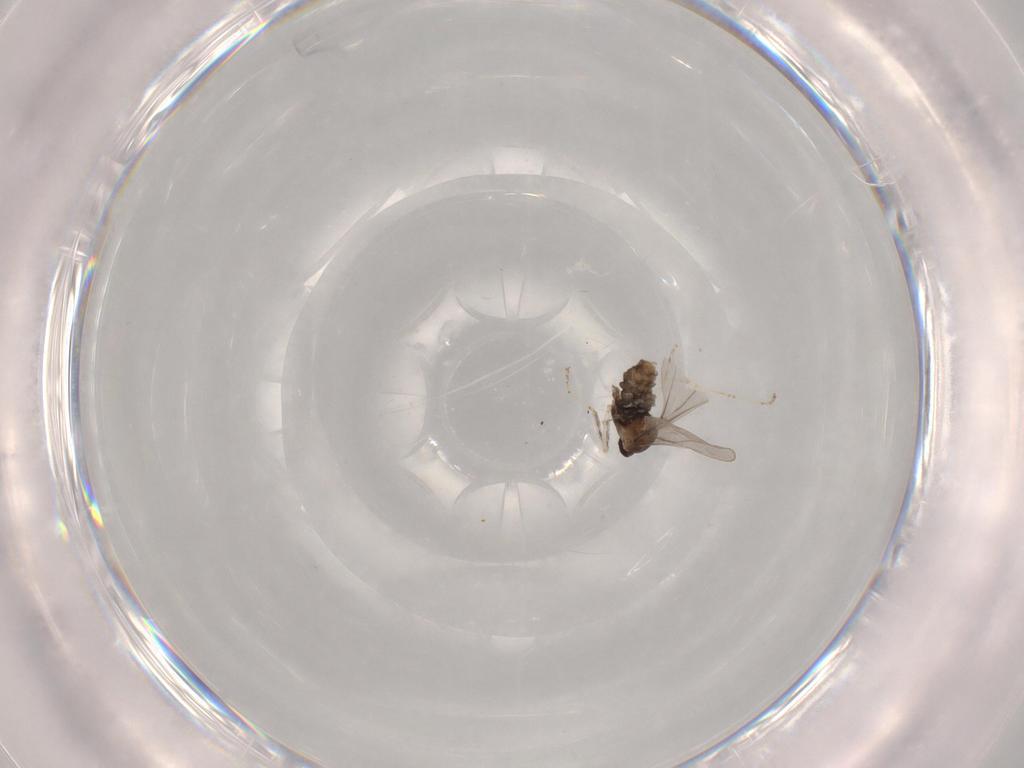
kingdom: Animalia
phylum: Arthropoda
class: Insecta
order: Diptera
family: Cecidomyiidae
